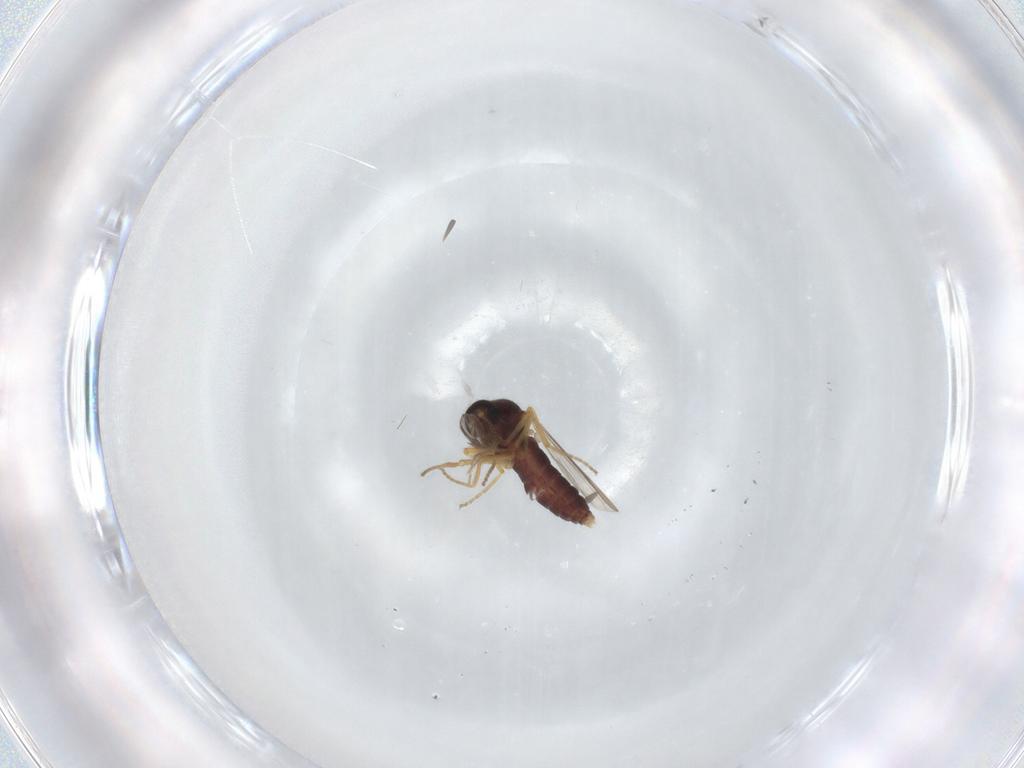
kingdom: Animalia
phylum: Arthropoda
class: Insecta
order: Diptera
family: Ceratopogonidae
